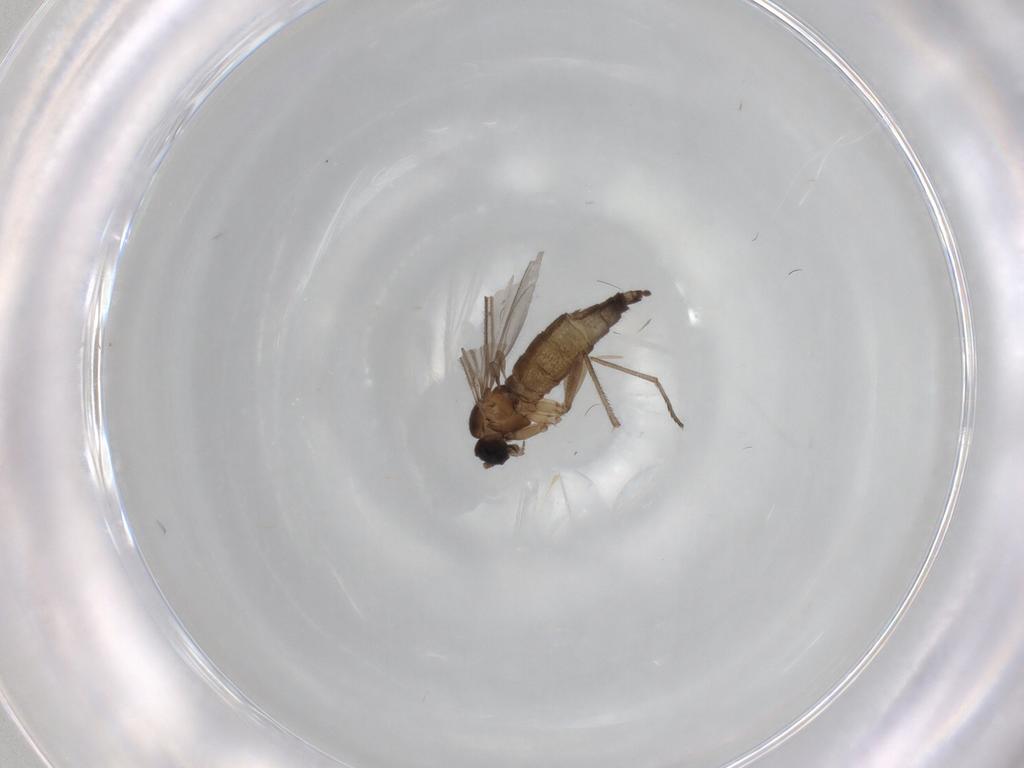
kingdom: Animalia
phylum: Arthropoda
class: Insecta
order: Diptera
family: Sciaridae
